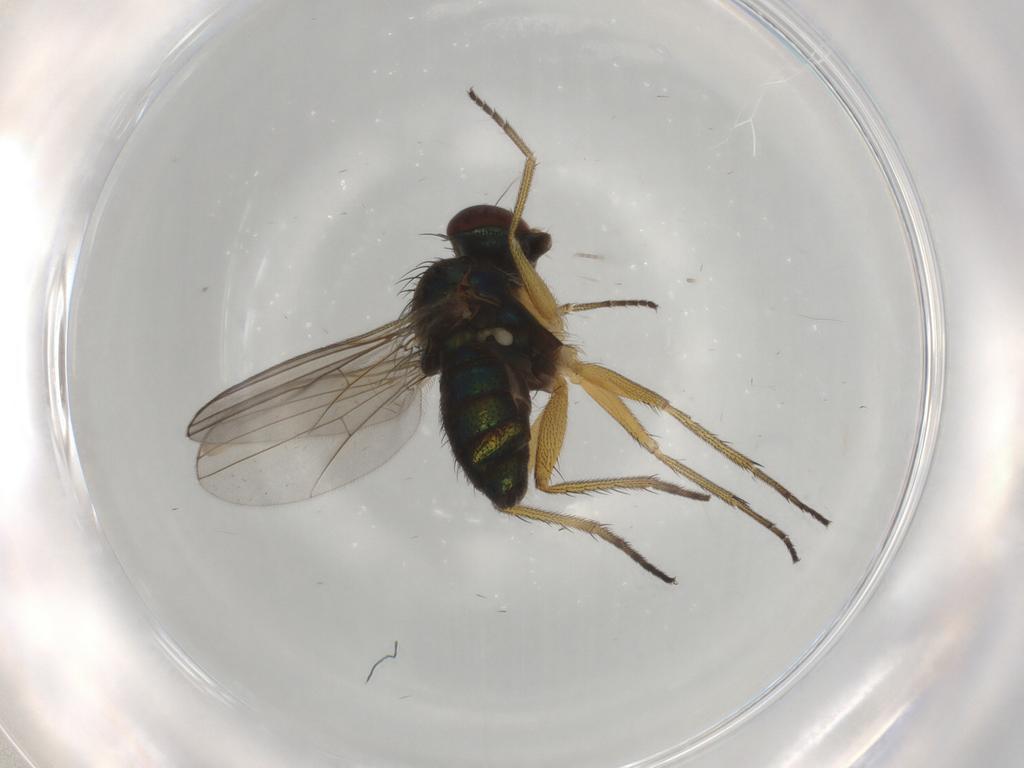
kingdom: Animalia
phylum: Arthropoda
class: Insecta
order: Diptera
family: Dolichopodidae
